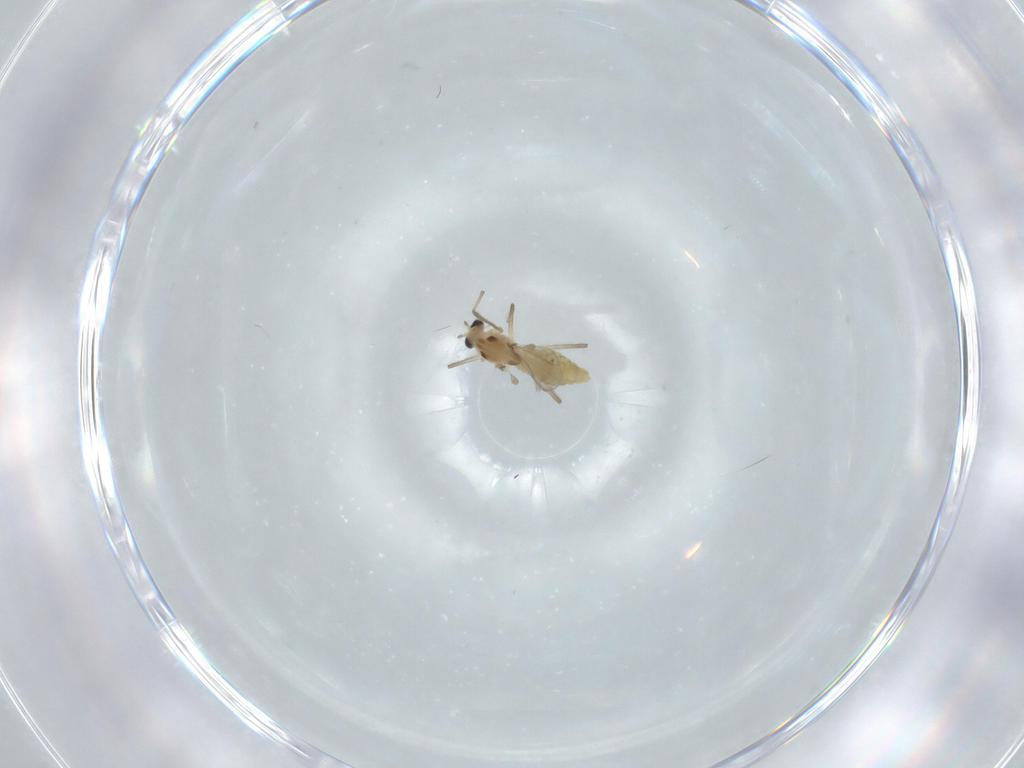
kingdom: Animalia
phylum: Arthropoda
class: Insecta
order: Diptera
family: Chironomidae
